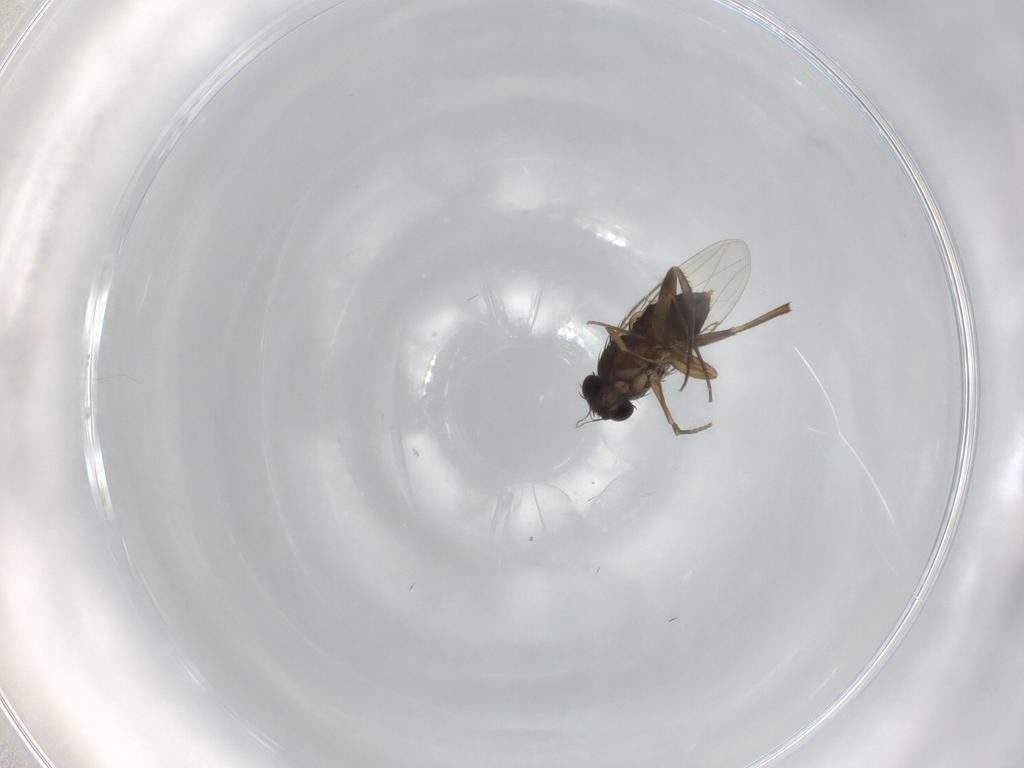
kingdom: Animalia
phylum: Arthropoda
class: Insecta
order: Diptera
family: Phoridae
